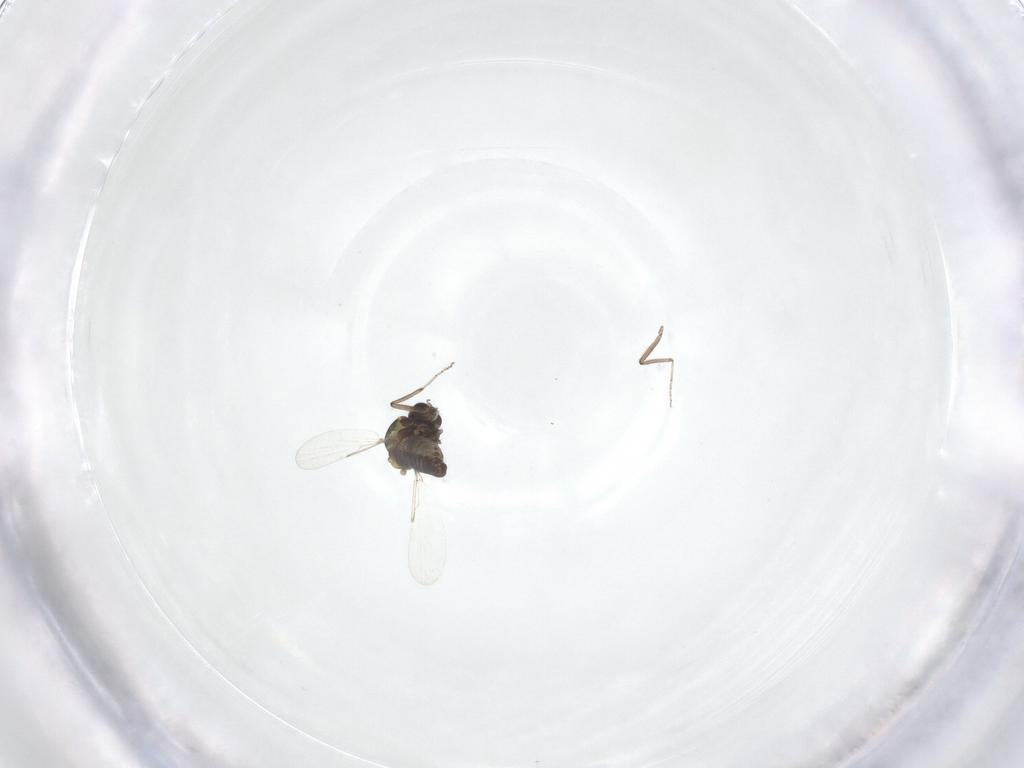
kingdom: Animalia
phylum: Arthropoda
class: Insecta
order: Diptera
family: Ceratopogonidae
